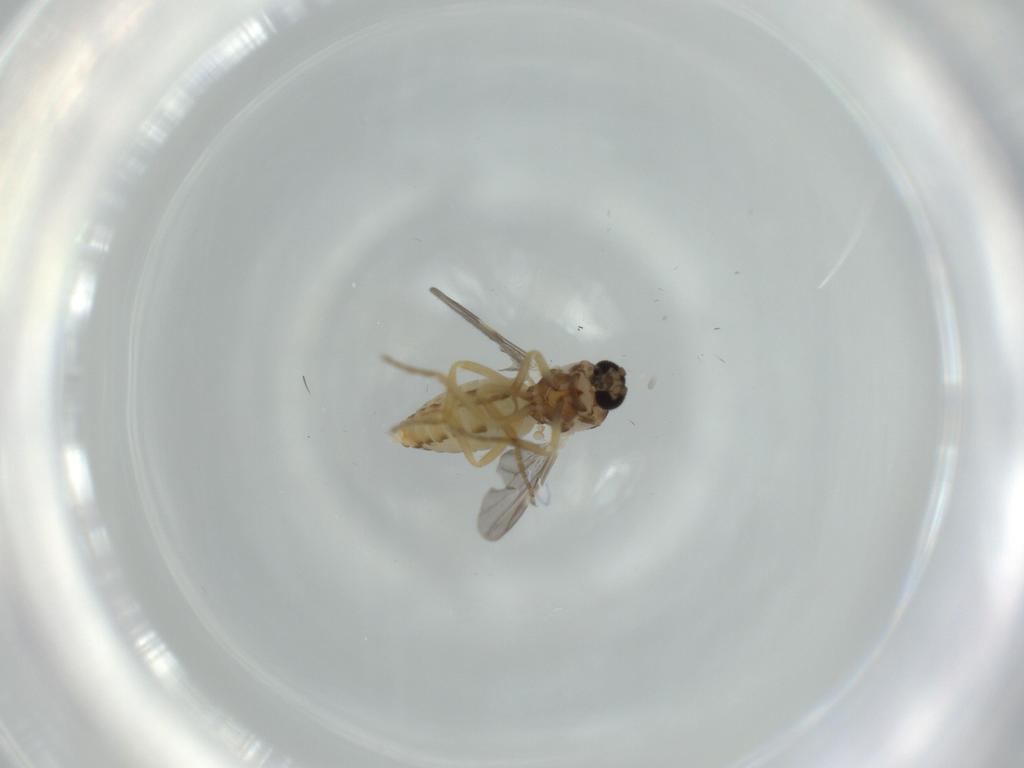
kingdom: Animalia
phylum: Arthropoda
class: Insecta
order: Diptera
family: Ceratopogonidae
